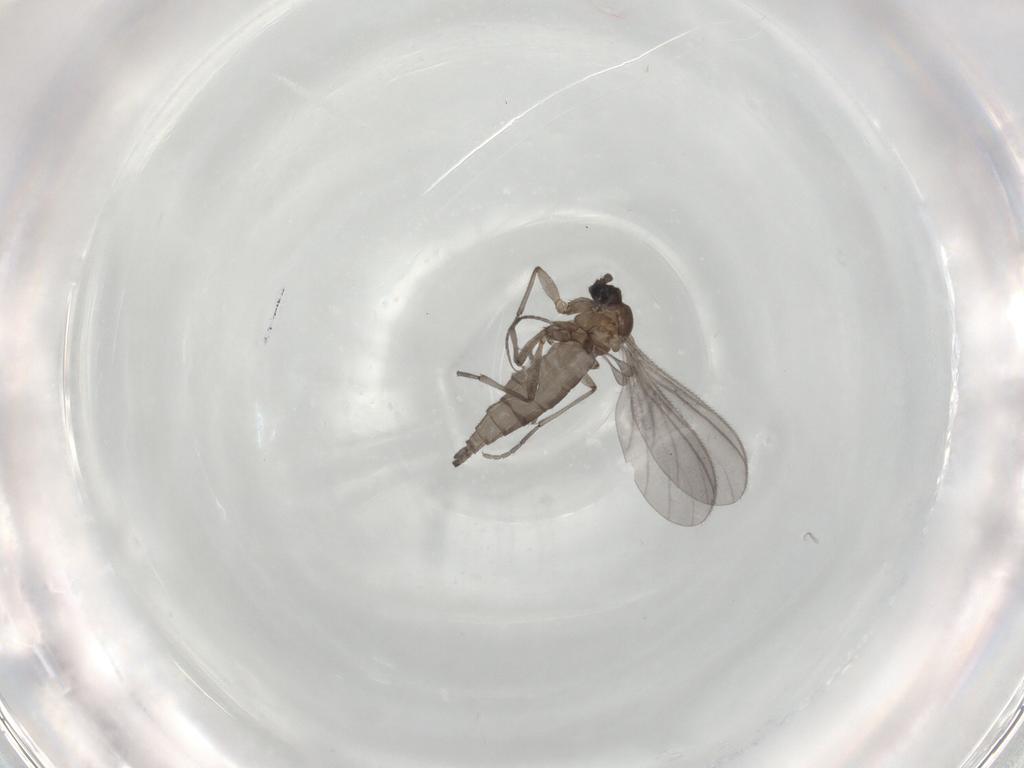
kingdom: Animalia
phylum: Arthropoda
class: Insecta
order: Diptera
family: Sciaridae
